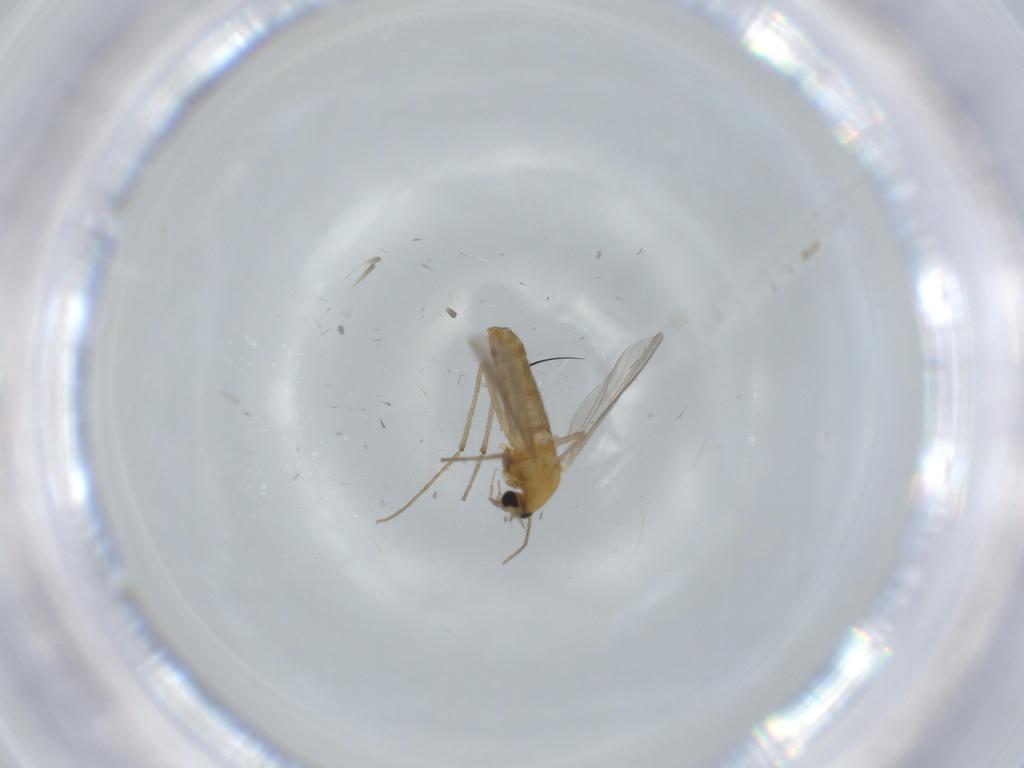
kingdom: Animalia
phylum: Arthropoda
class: Insecta
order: Diptera
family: Chironomidae
